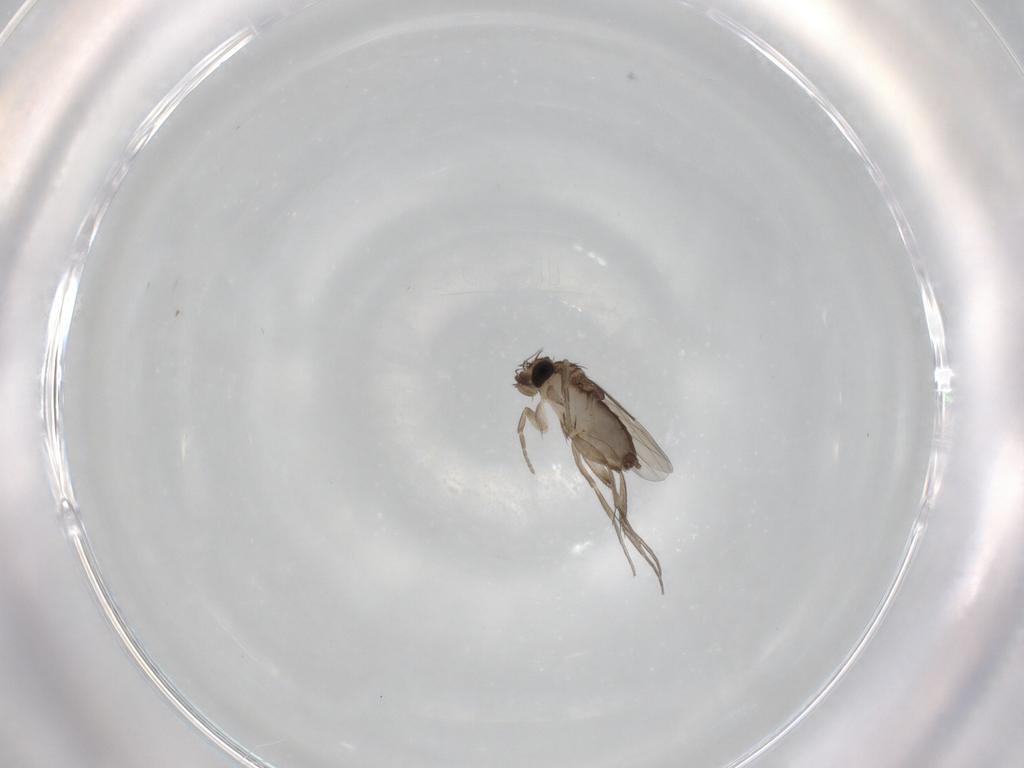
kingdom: Animalia
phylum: Arthropoda
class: Insecta
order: Diptera
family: Phoridae
